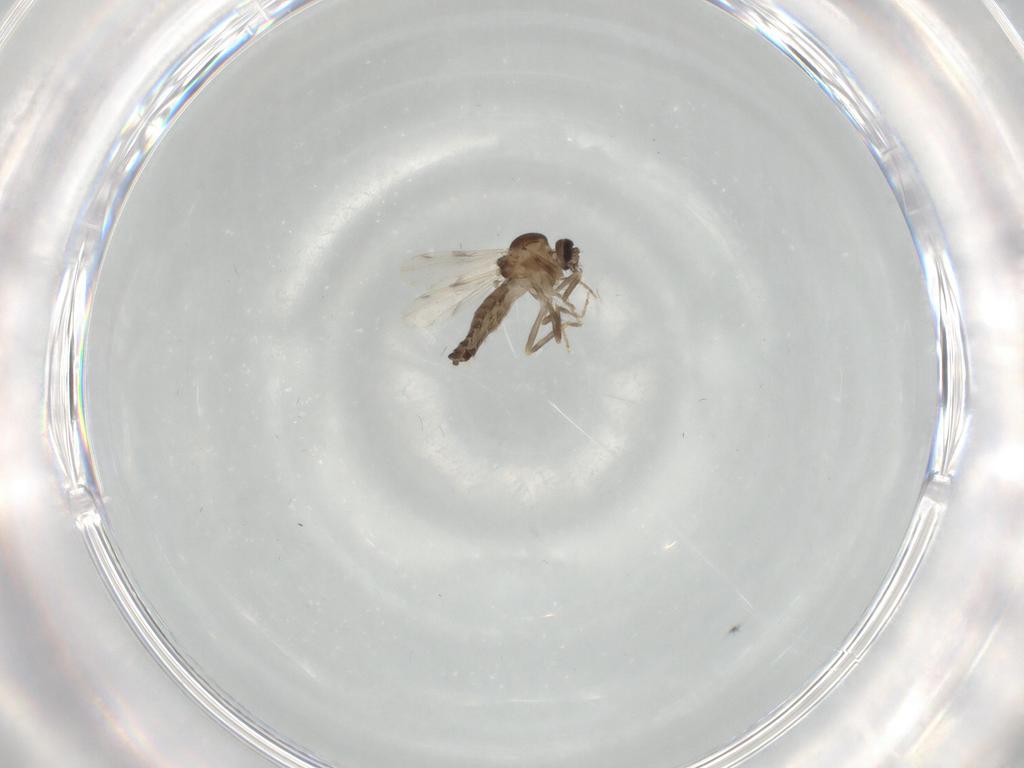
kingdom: Animalia
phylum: Arthropoda
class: Insecta
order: Diptera
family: Ceratopogonidae
